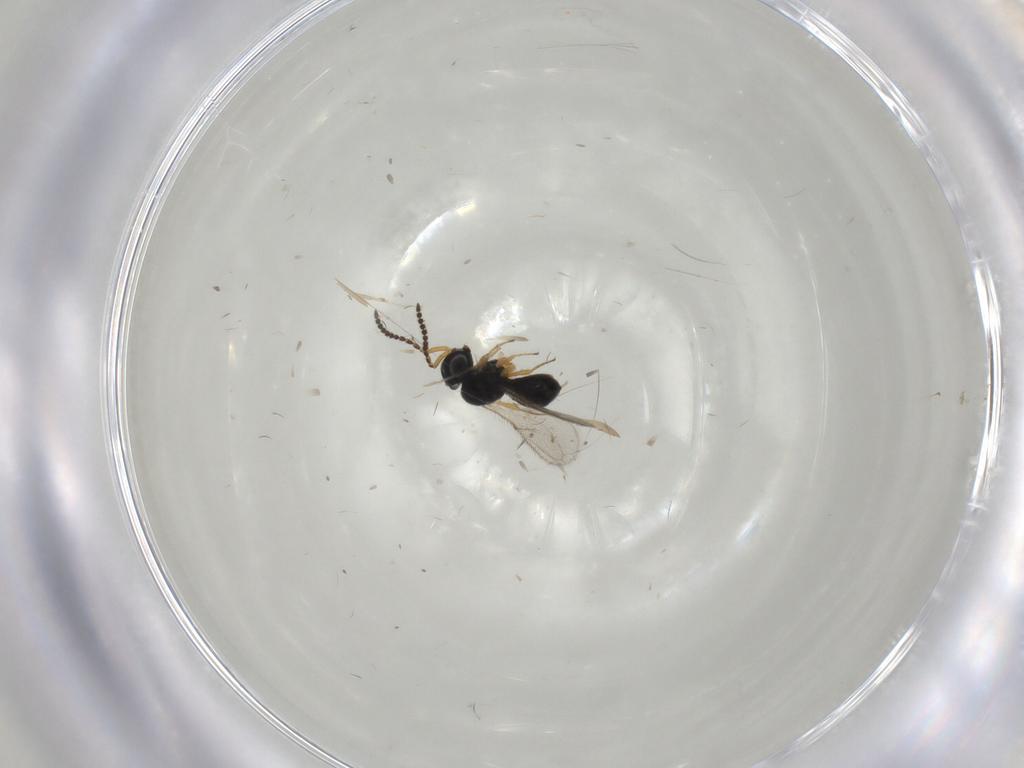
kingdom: Animalia
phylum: Arthropoda
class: Insecta
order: Hymenoptera
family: Scelionidae
